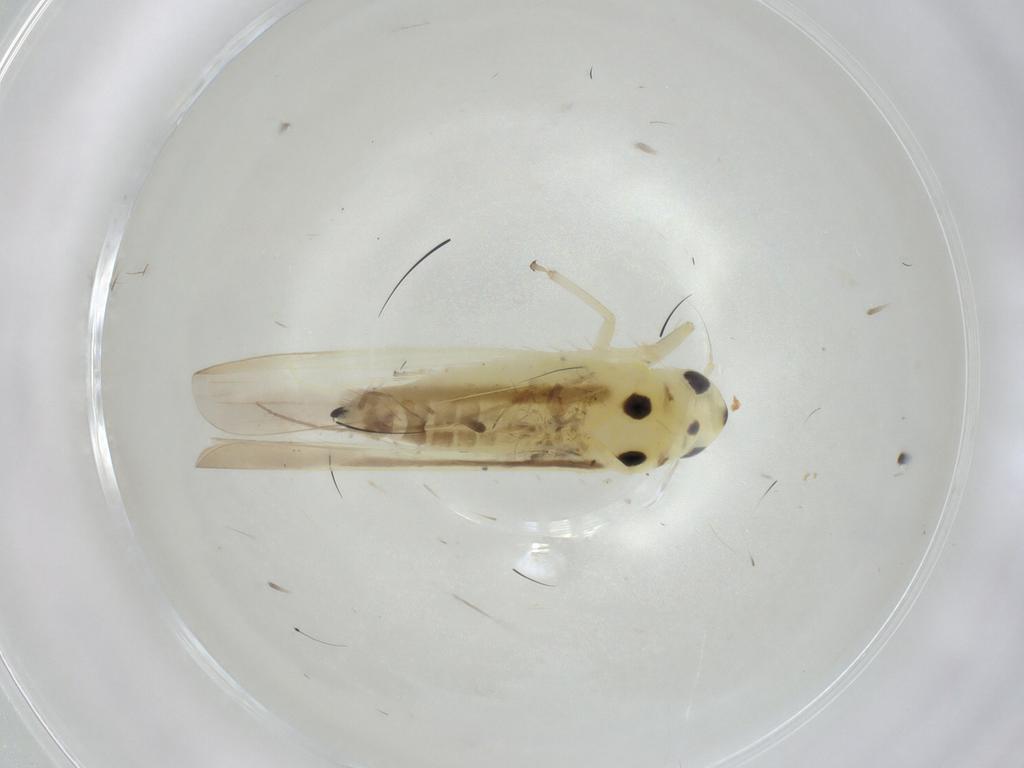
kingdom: Animalia
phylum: Arthropoda
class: Insecta
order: Hemiptera
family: Cicadellidae
